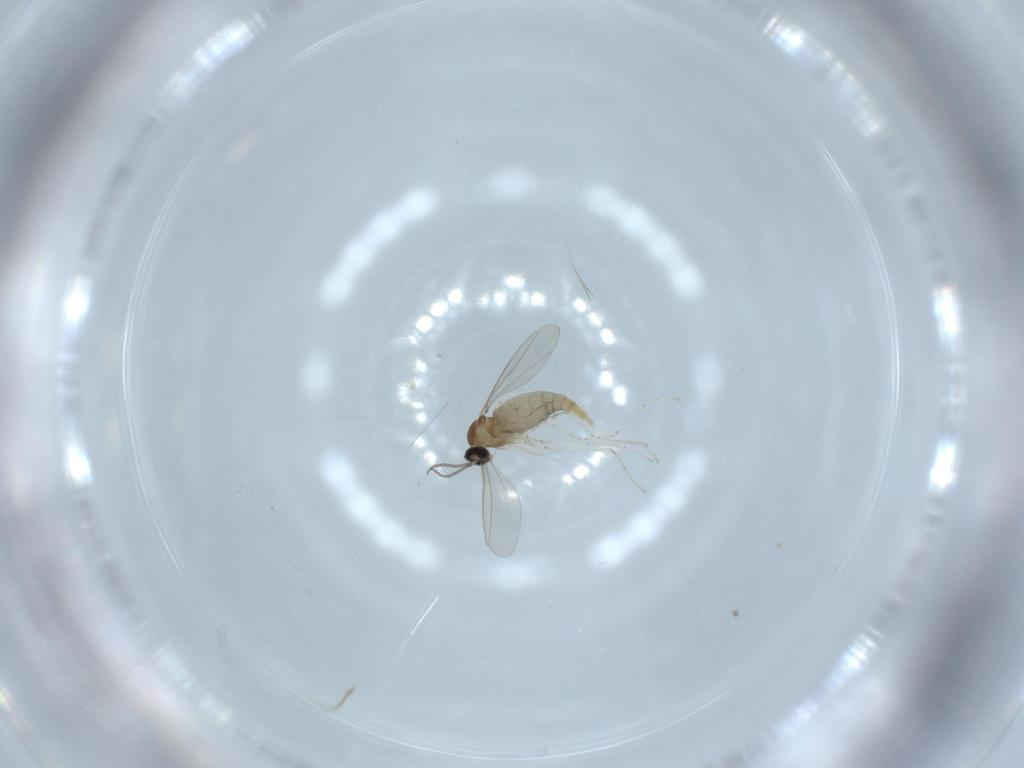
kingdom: Animalia
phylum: Arthropoda
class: Insecta
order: Diptera
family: Cecidomyiidae
